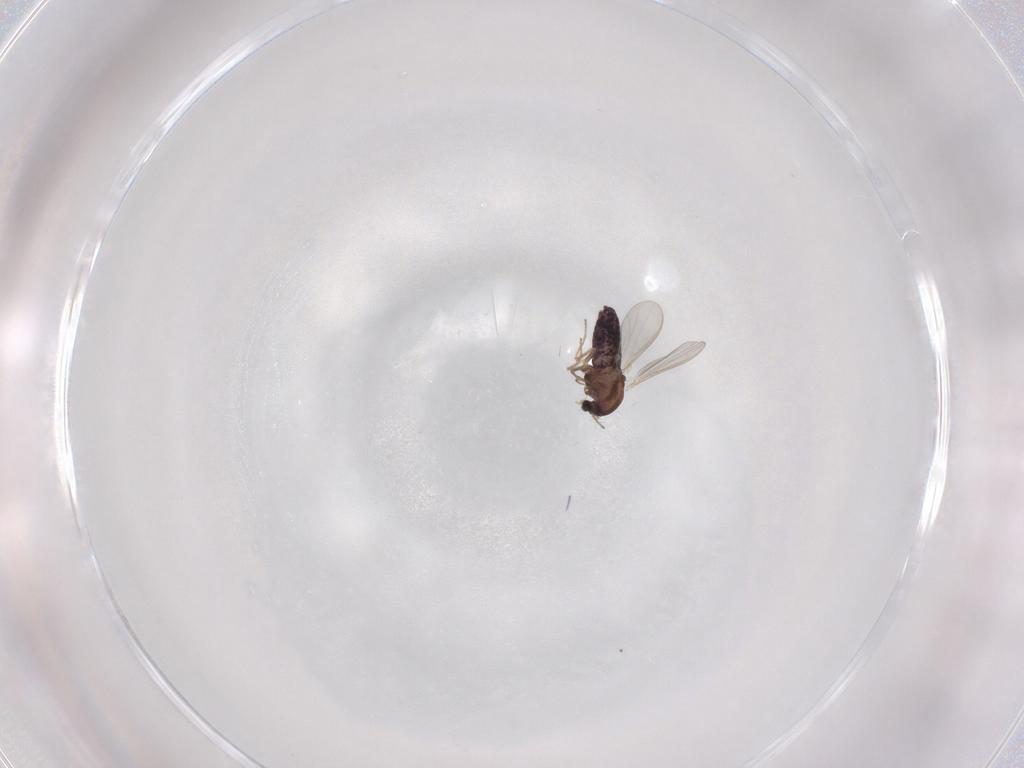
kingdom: Animalia
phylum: Arthropoda
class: Insecta
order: Diptera
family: Chironomidae
